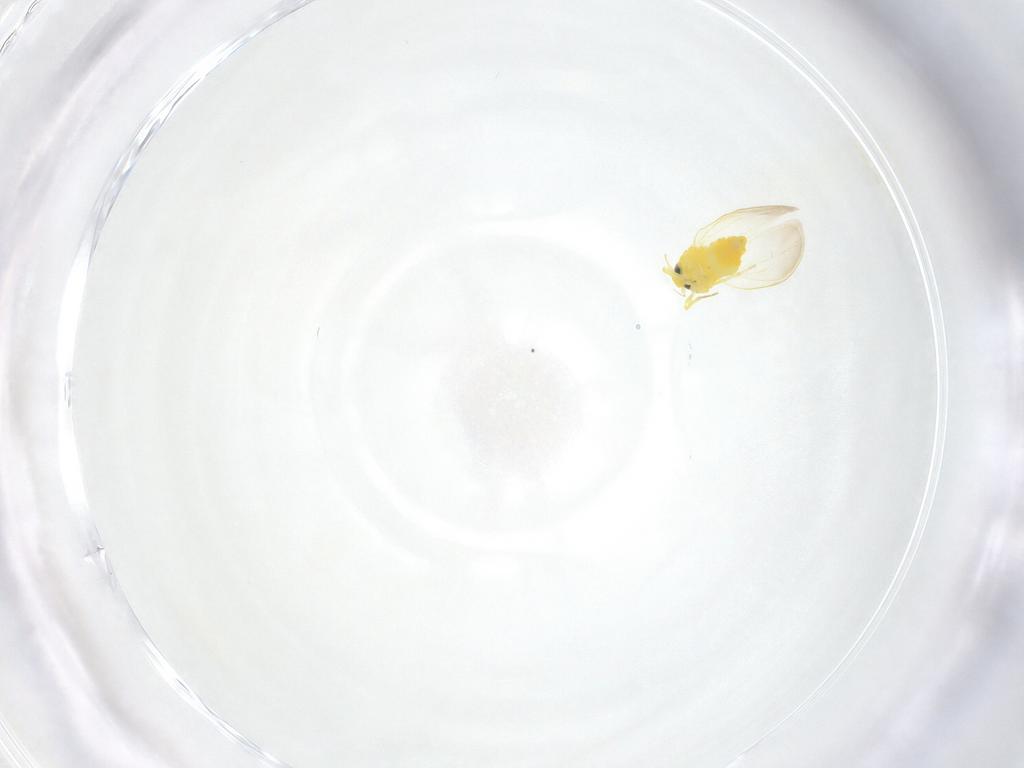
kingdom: Animalia
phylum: Arthropoda
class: Insecta
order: Hemiptera
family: Aleyrodidae
